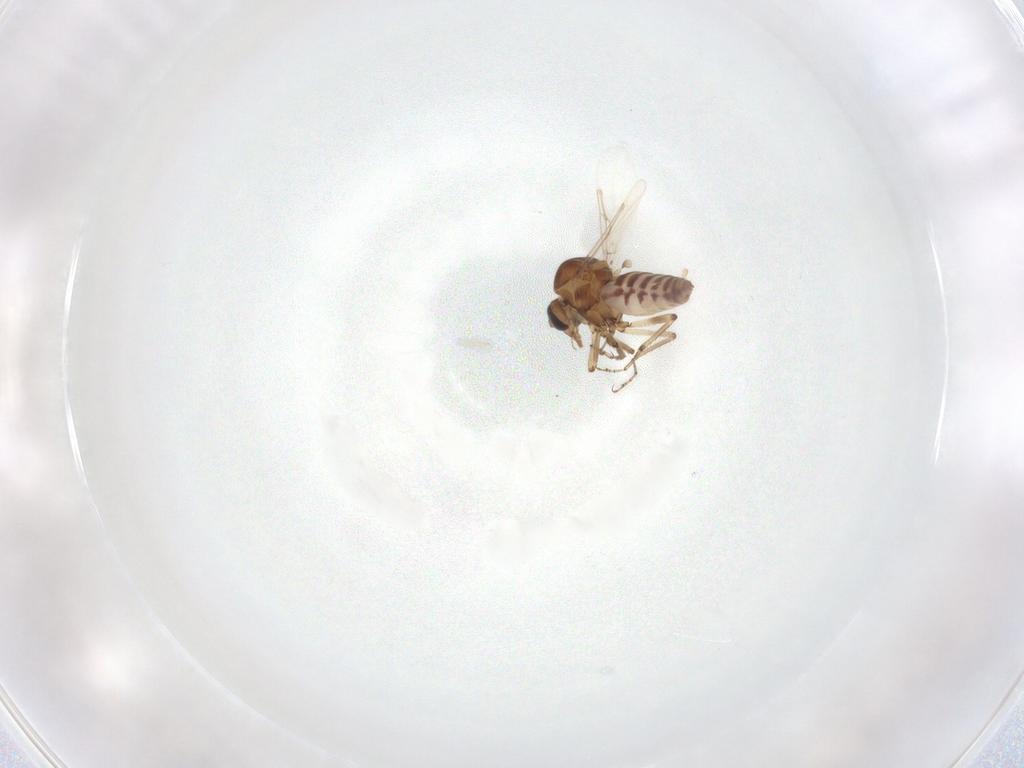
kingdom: Animalia
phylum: Arthropoda
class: Insecta
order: Diptera
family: Ceratopogonidae
